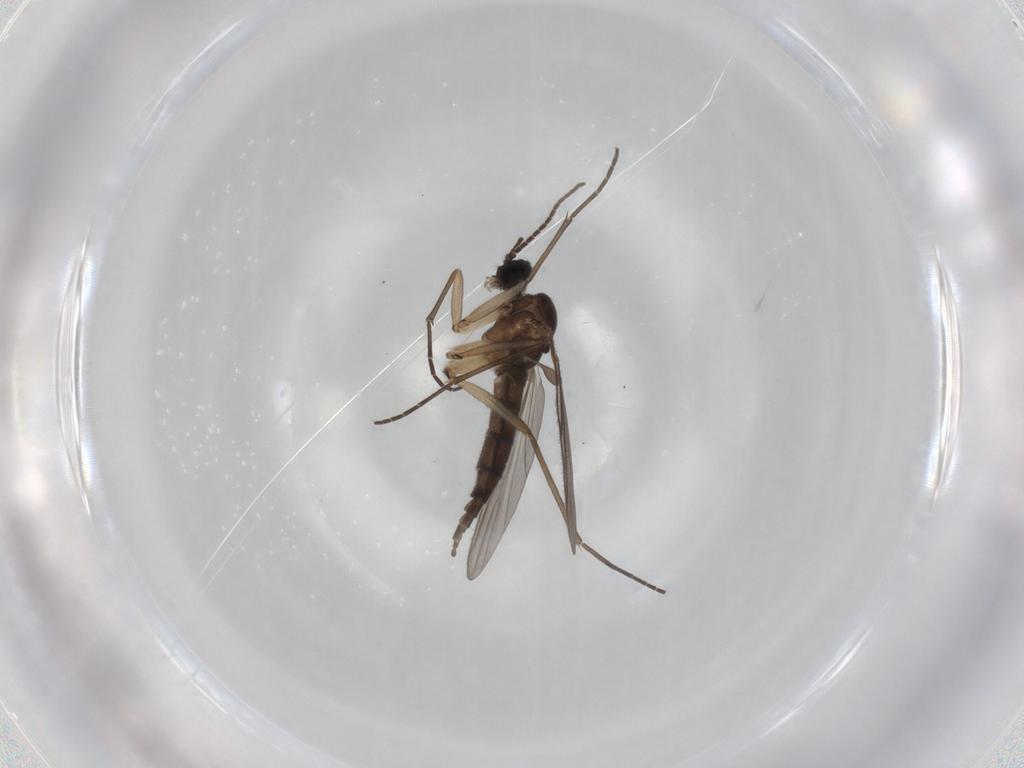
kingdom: Animalia
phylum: Arthropoda
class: Insecta
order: Diptera
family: Sciaridae
